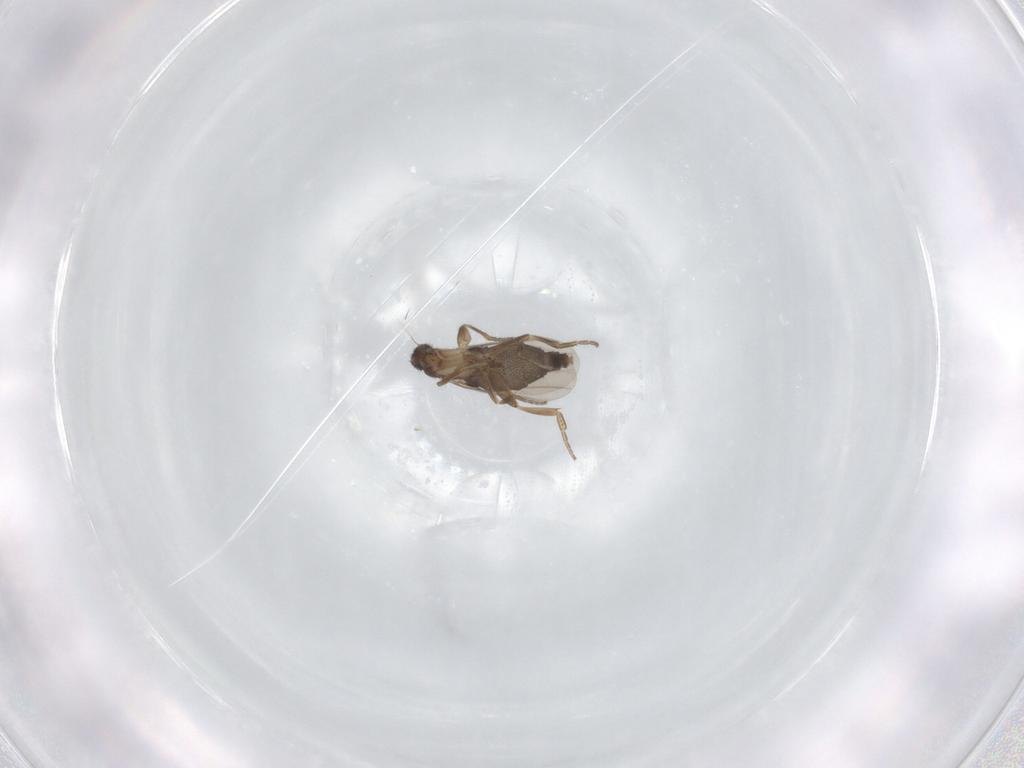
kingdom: Animalia
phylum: Arthropoda
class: Insecta
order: Diptera
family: Phoridae
